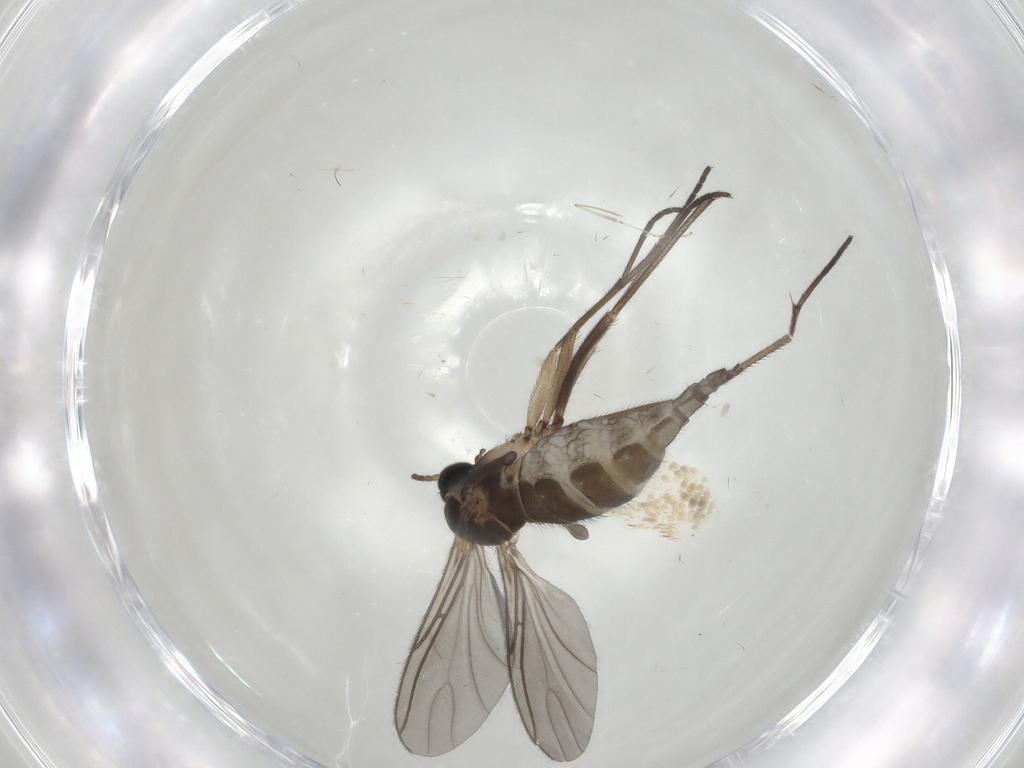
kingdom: Animalia
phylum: Arthropoda
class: Insecta
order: Diptera
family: Sciaridae
